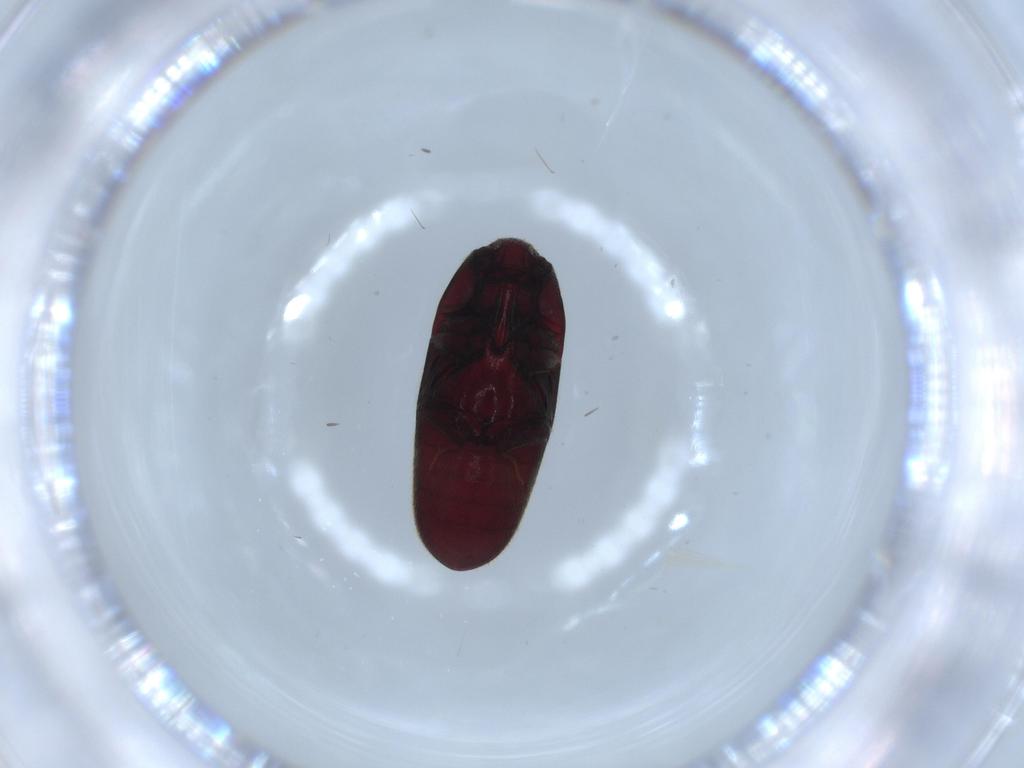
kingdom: Animalia
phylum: Arthropoda
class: Insecta
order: Coleoptera
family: Throscidae
